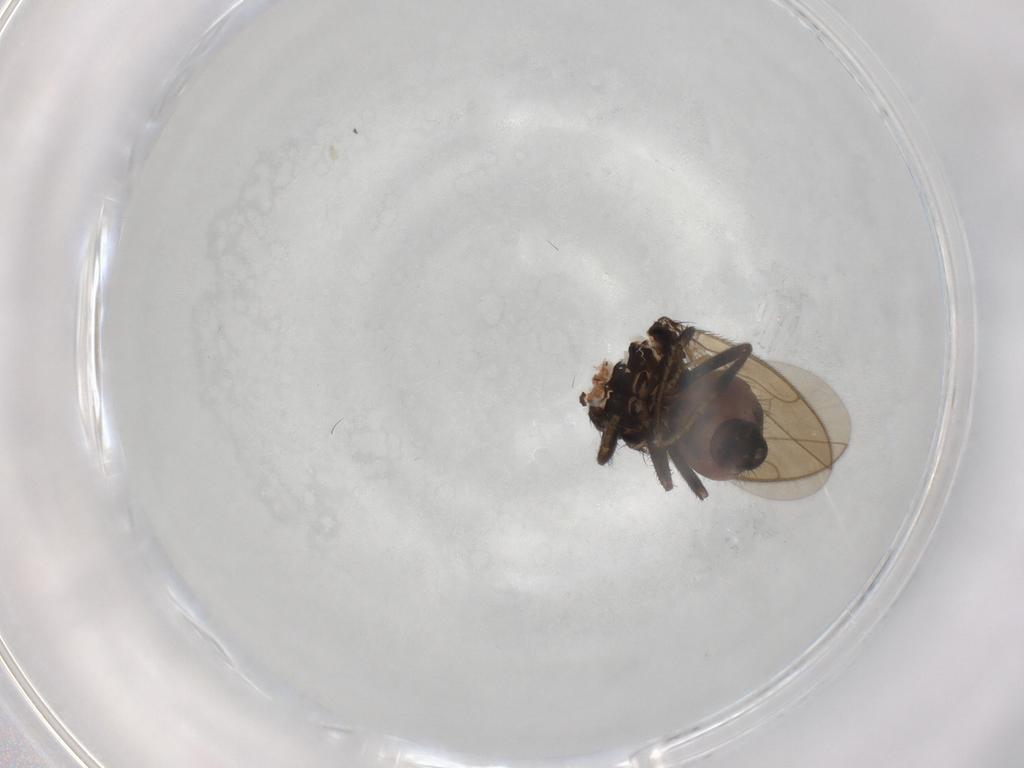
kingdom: Animalia
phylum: Arthropoda
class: Insecta
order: Diptera
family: Sphaeroceridae
